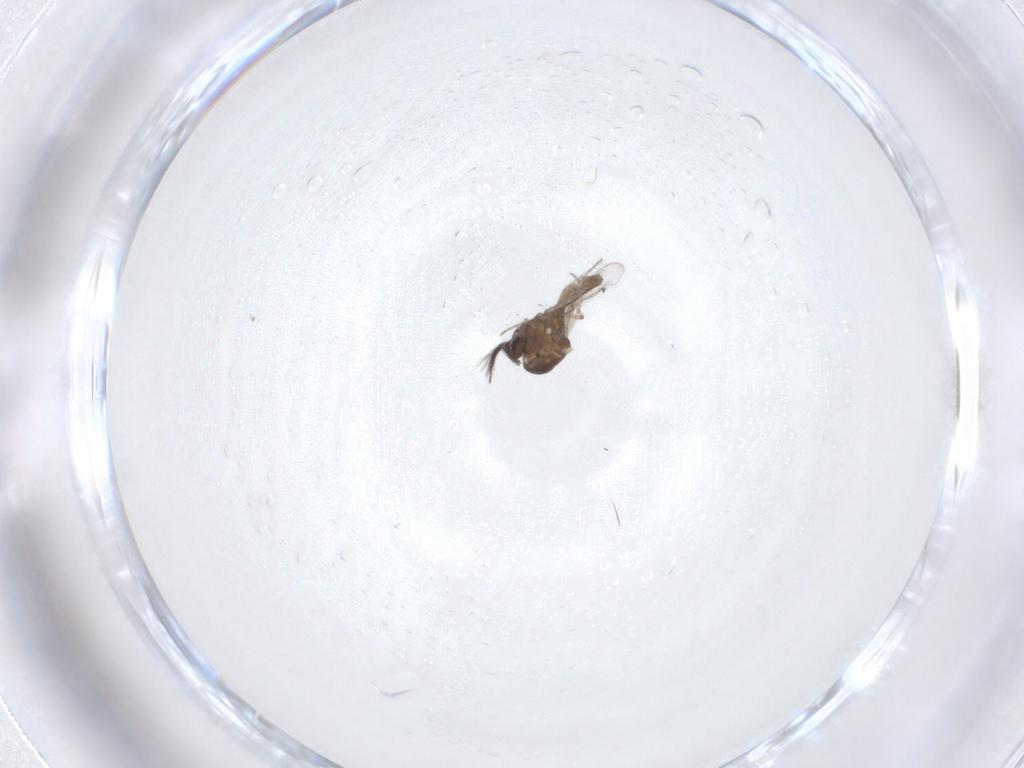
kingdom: Animalia
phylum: Arthropoda
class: Insecta
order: Diptera
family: Ceratopogonidae
